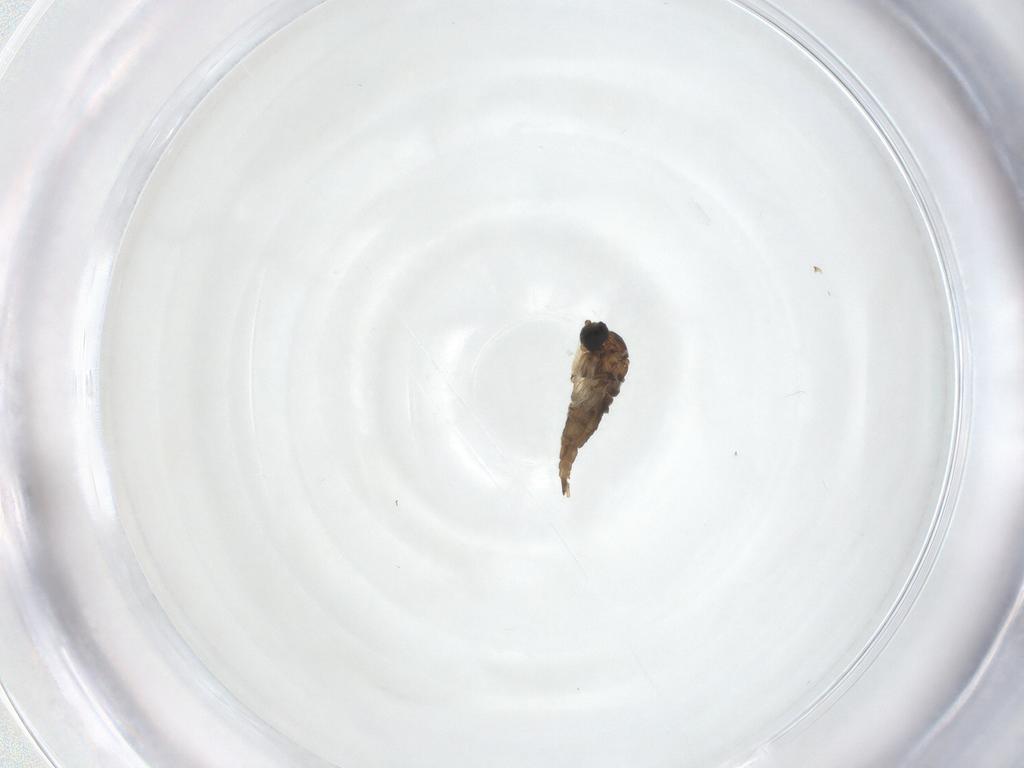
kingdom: Animalia
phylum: Arthropoda
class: Insecta
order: Diptera
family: Sciaridae
